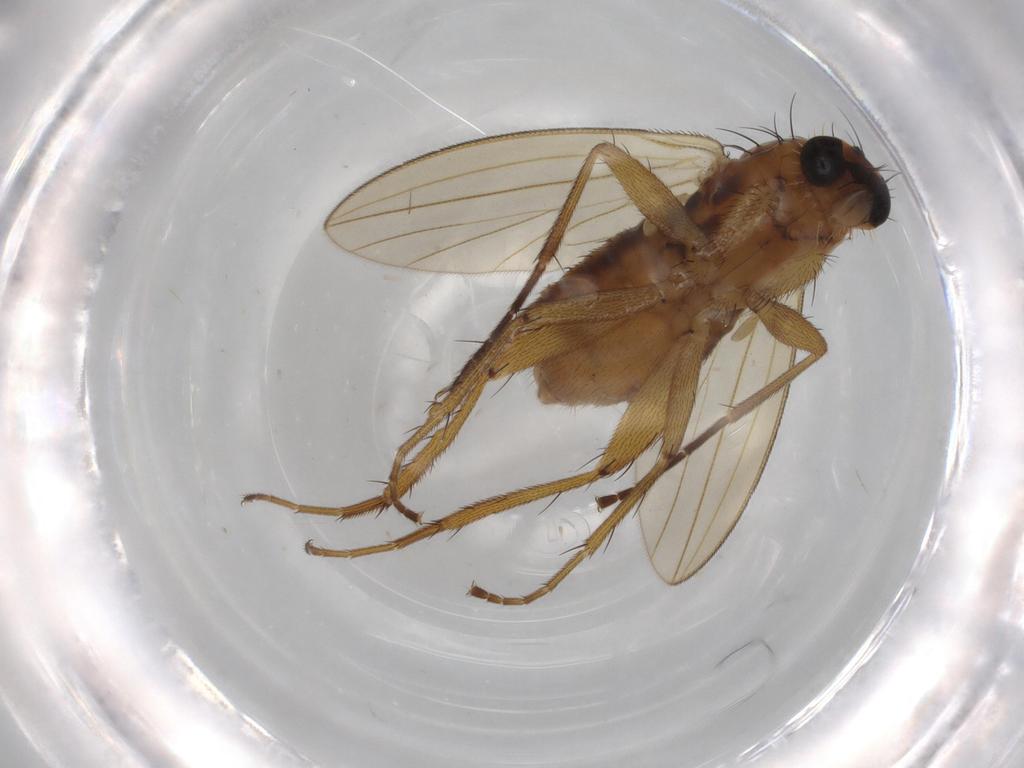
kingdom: Animalia
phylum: Arthropoda
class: Insecta
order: Diptera
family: Lonchopteridae
